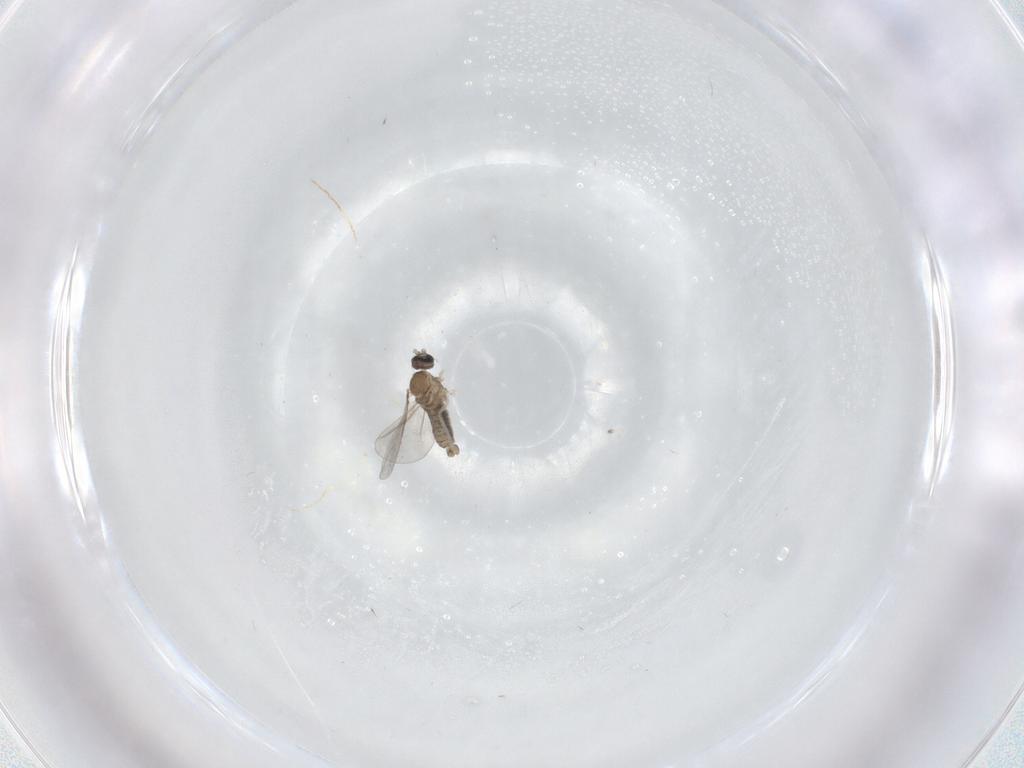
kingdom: Animalia
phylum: Arthropoda
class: Insecta
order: Diptera
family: Cecidomyiidae
